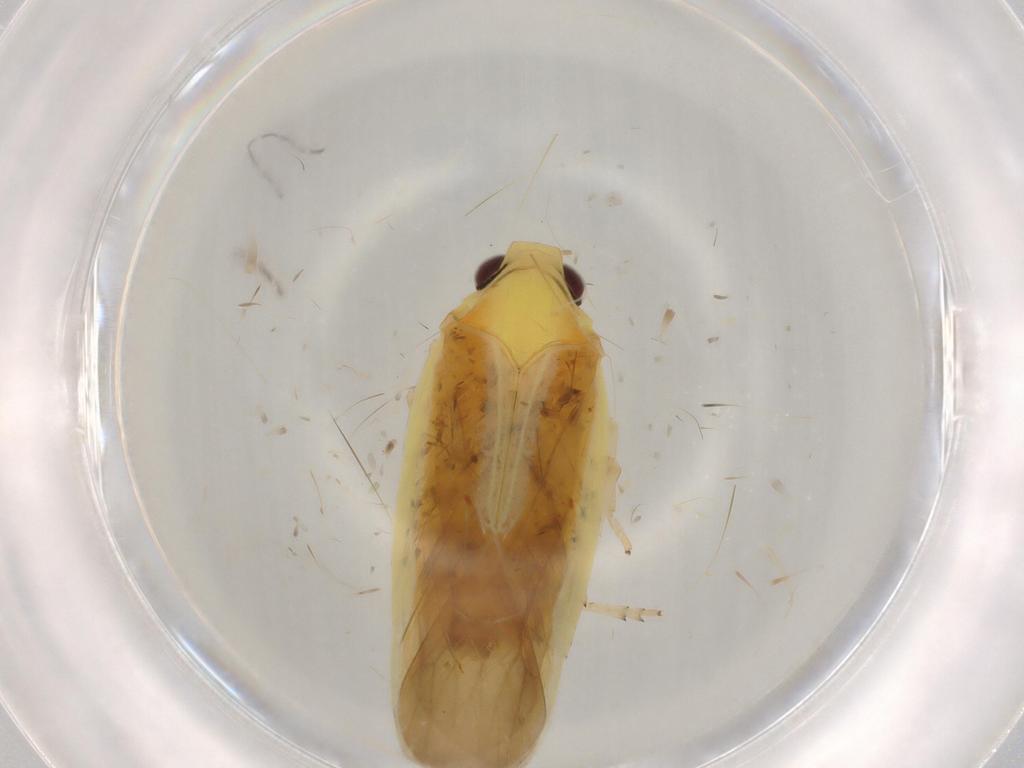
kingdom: Animalia
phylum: Arthropoda
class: Insecta
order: Hemiptera
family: Achilidae
